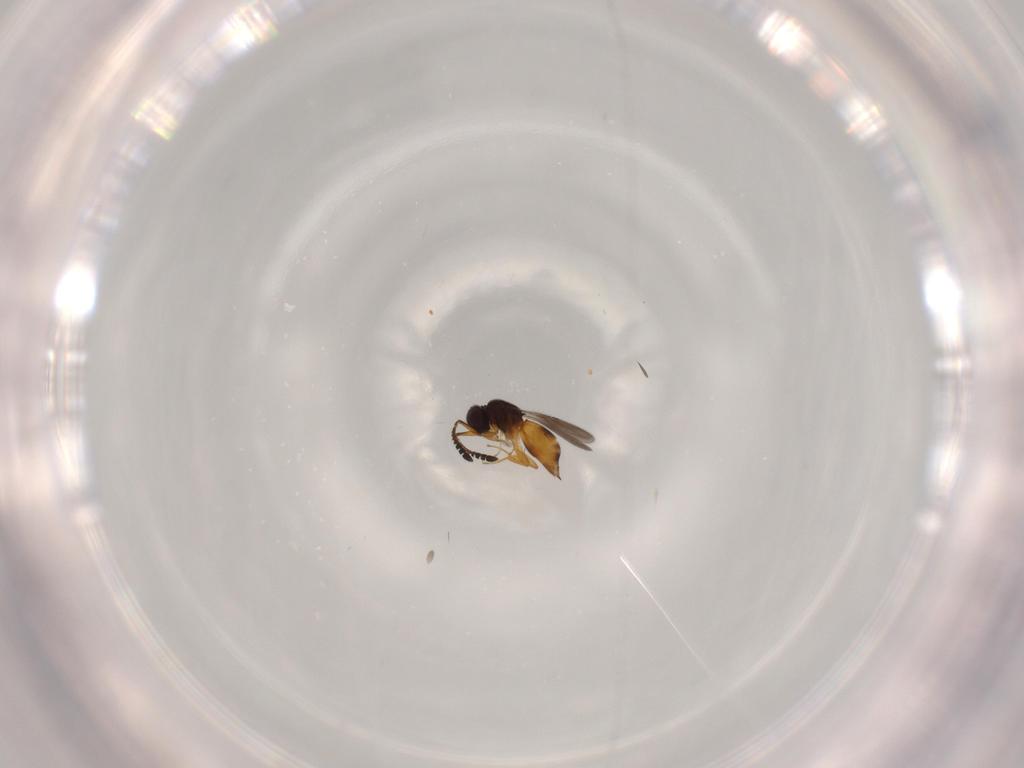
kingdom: Animalia
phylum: Arthropoda
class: Insecta
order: Hymenoptera
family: Ceraphronidae
